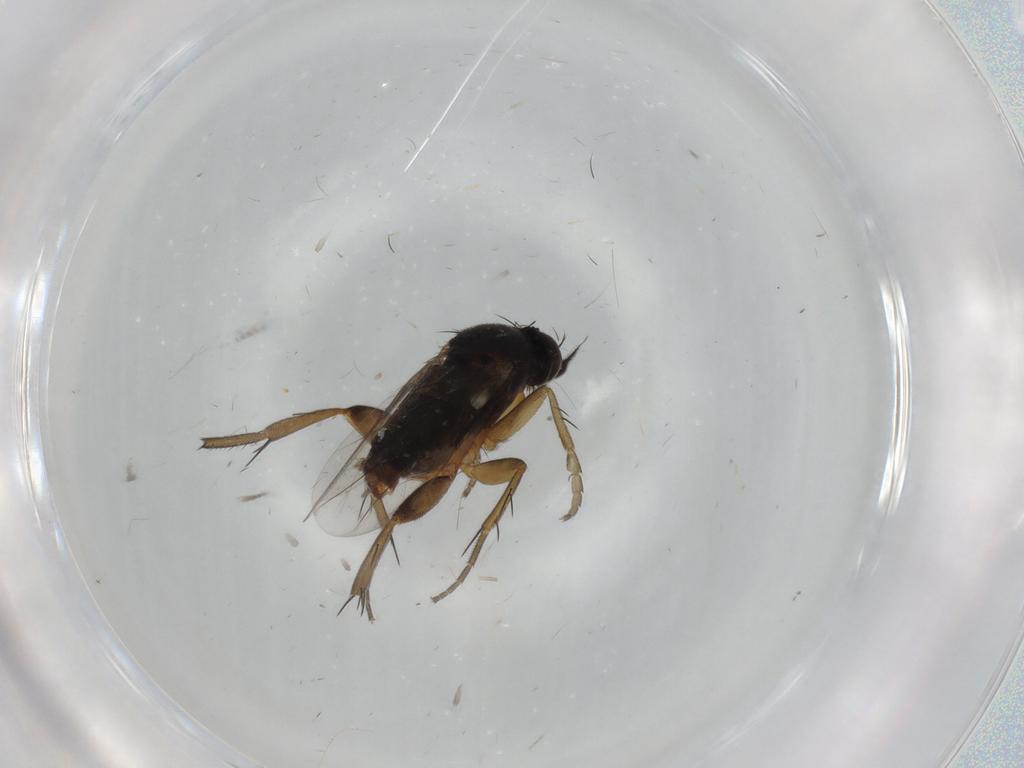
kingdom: Animalia
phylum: Arthropoda
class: Insecta
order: Diptera
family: Phoridae
